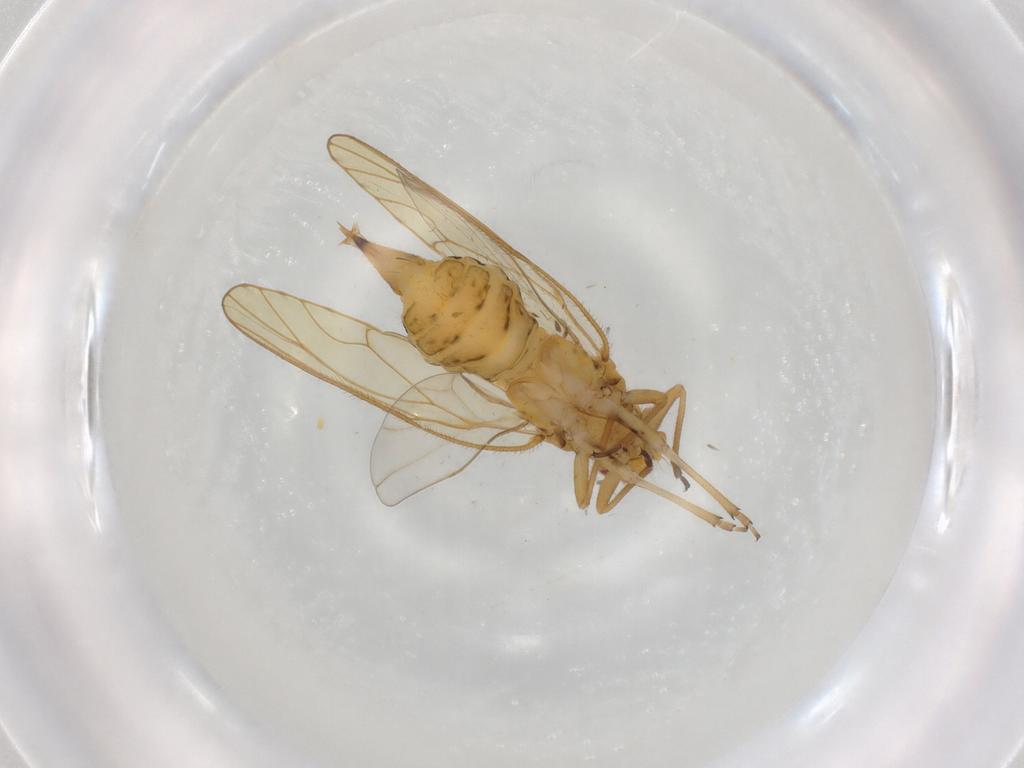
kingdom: Animalia
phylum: Arthropoda
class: Insecta
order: Hemiptera
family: Psyllidae
